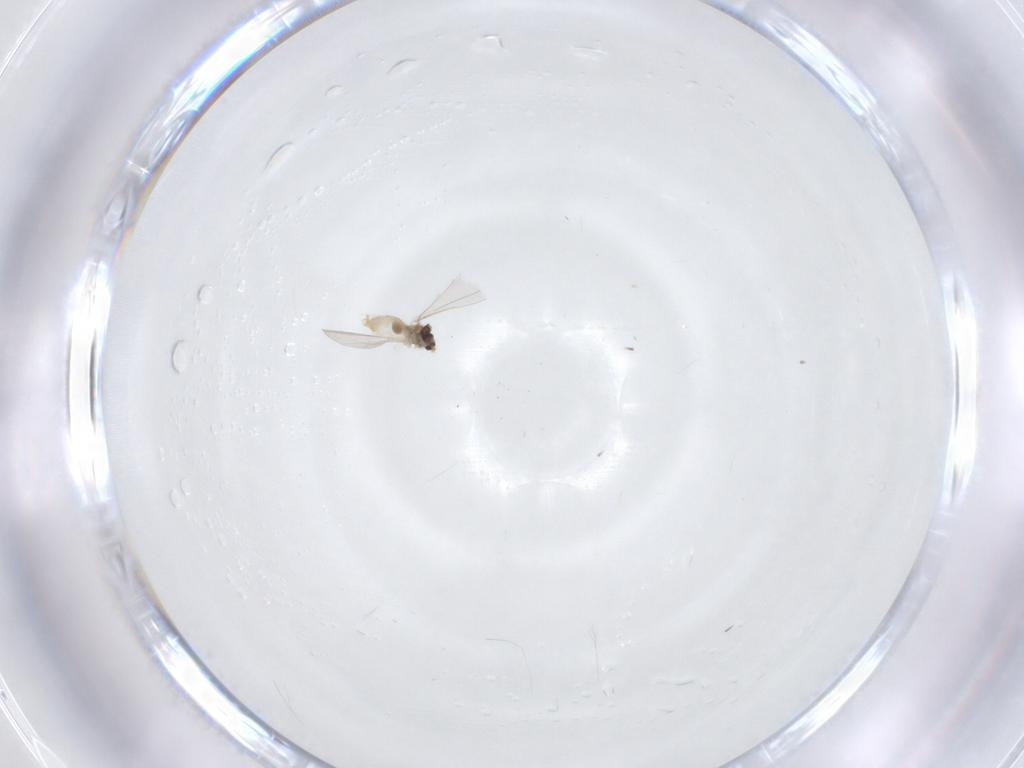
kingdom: Animalia
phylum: Arthropoda
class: Insecta
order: Diptera
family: Cecidomyiidae
